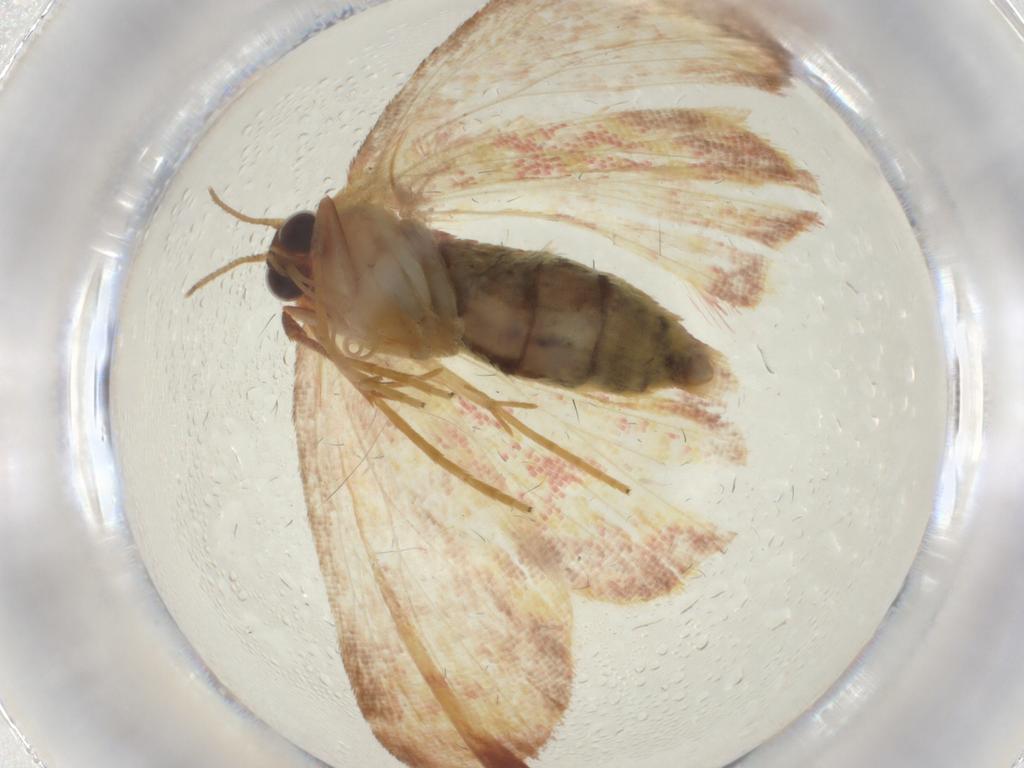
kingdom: Animalia
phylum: Arthropoda
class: Insecta
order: Lepidoptera
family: Geometridae
